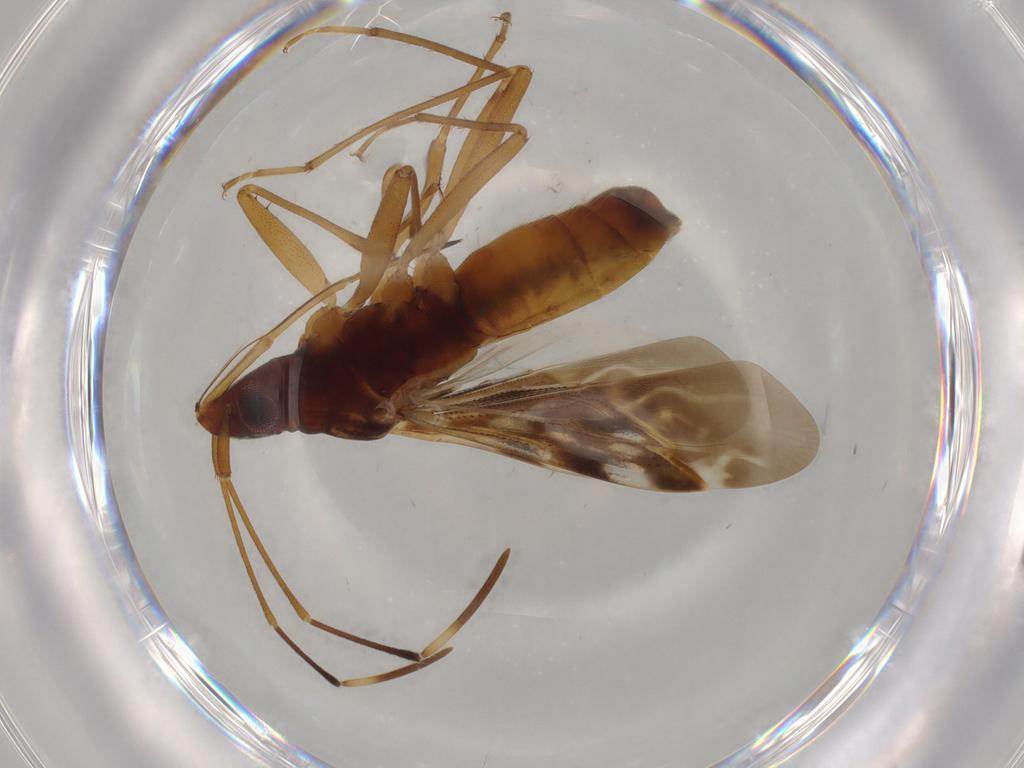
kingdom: Animalia
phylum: Arthropoda
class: Insecta
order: Hemiptera
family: Rhyparochromidae
